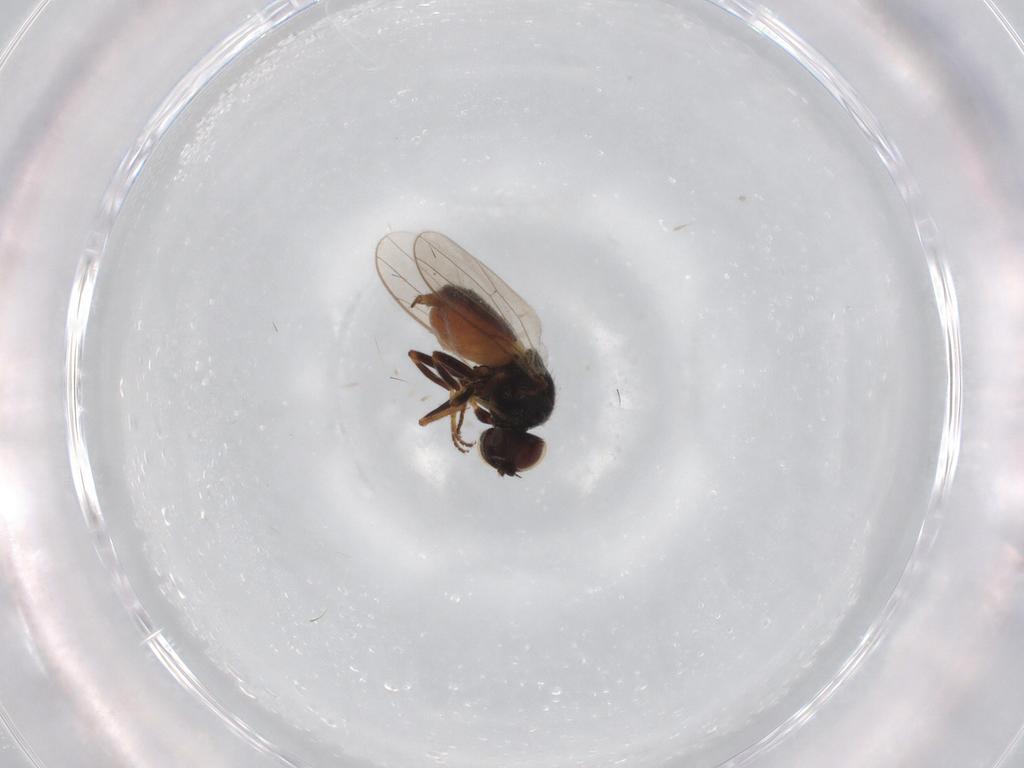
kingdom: Animalia
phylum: Arthropoda
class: Insecta
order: Diptera
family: Chloropidae
